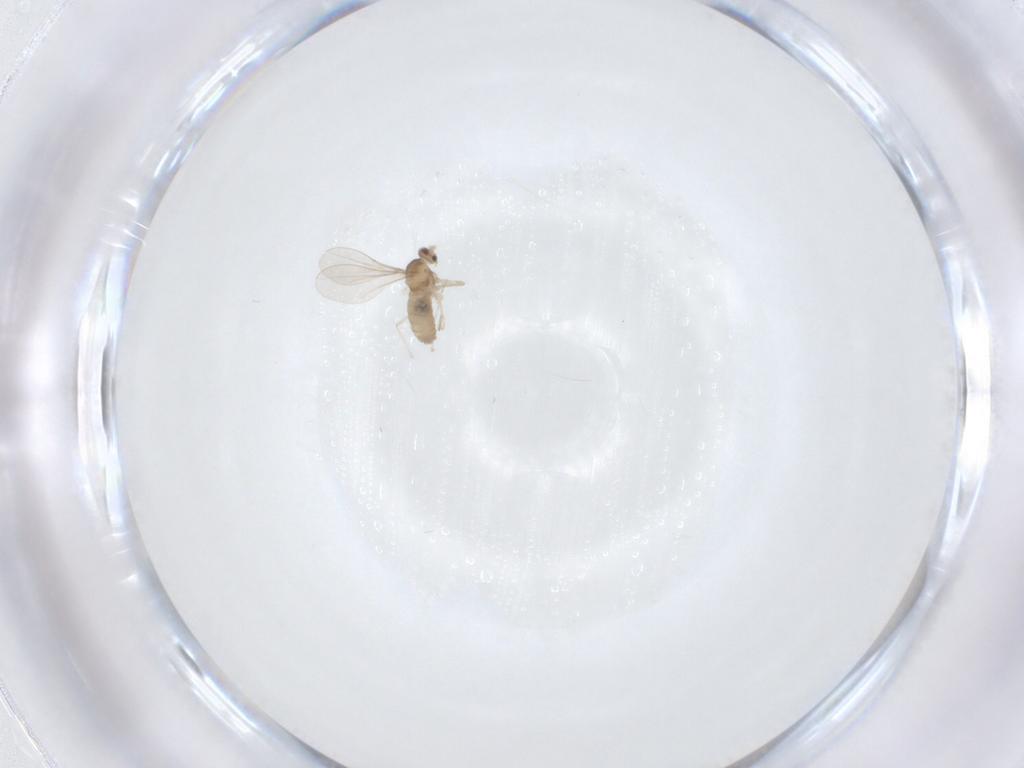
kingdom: Animalia
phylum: Arthropoda
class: Insecta
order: Diptera
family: Cecidomyiidae
